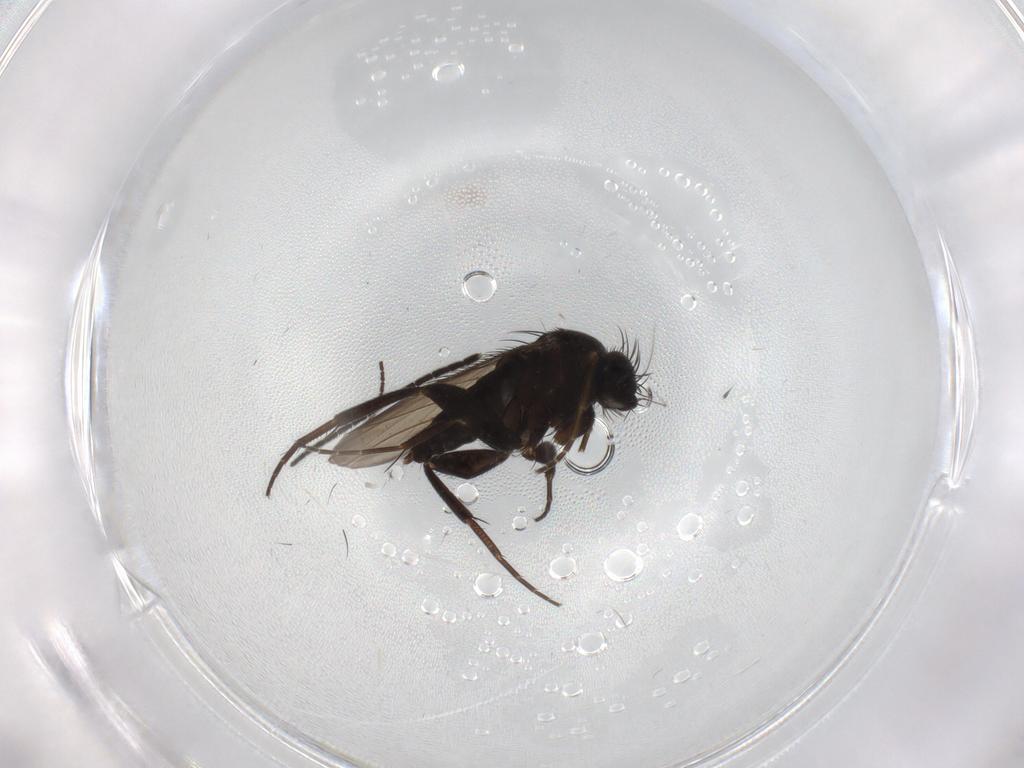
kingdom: Animalia
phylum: Arthropoda
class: Insecta
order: Diptera
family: Phoridae
